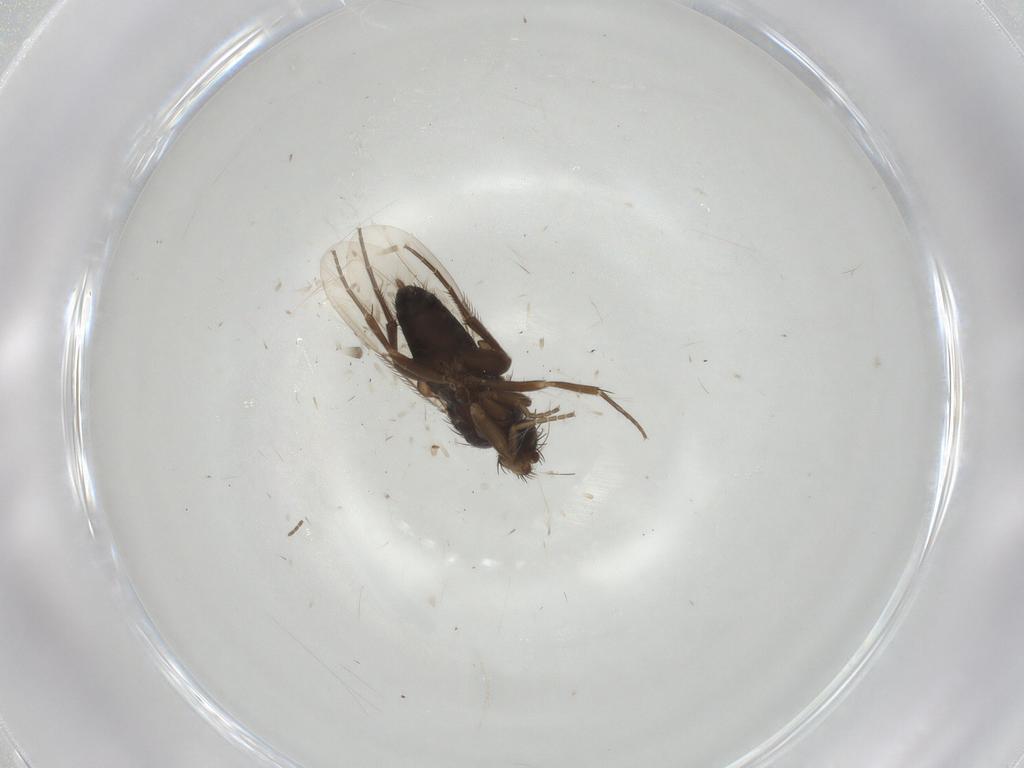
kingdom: Animalia
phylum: Arthropoda
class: Insecta
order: Diptera
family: Phoridae
